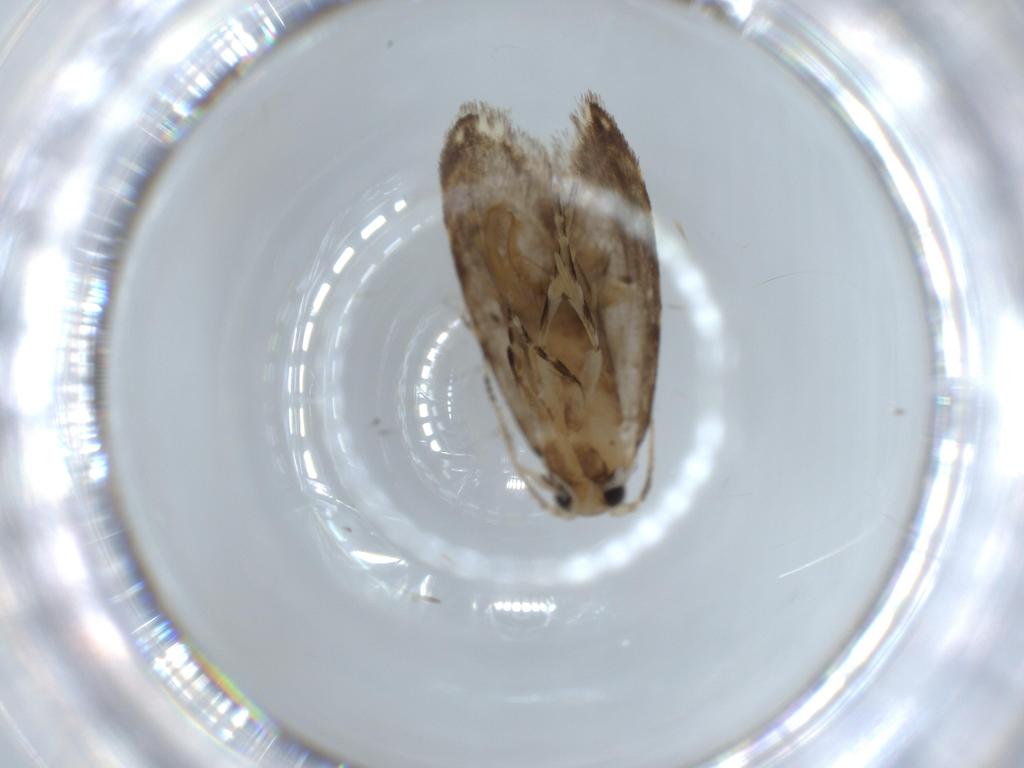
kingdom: Animalia
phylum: Arthropoda
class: Insecta
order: Lepidoptera
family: Tineidae
